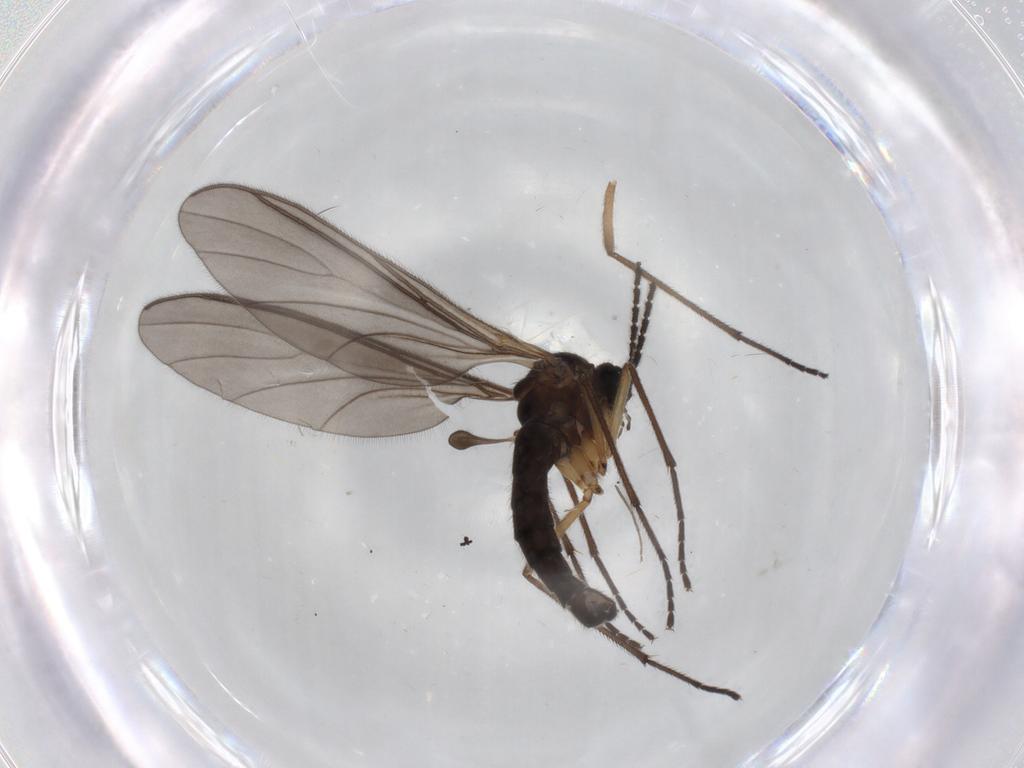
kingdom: Animalia
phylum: Arthropoda
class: Insecta
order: Diptera
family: Sciaridae
